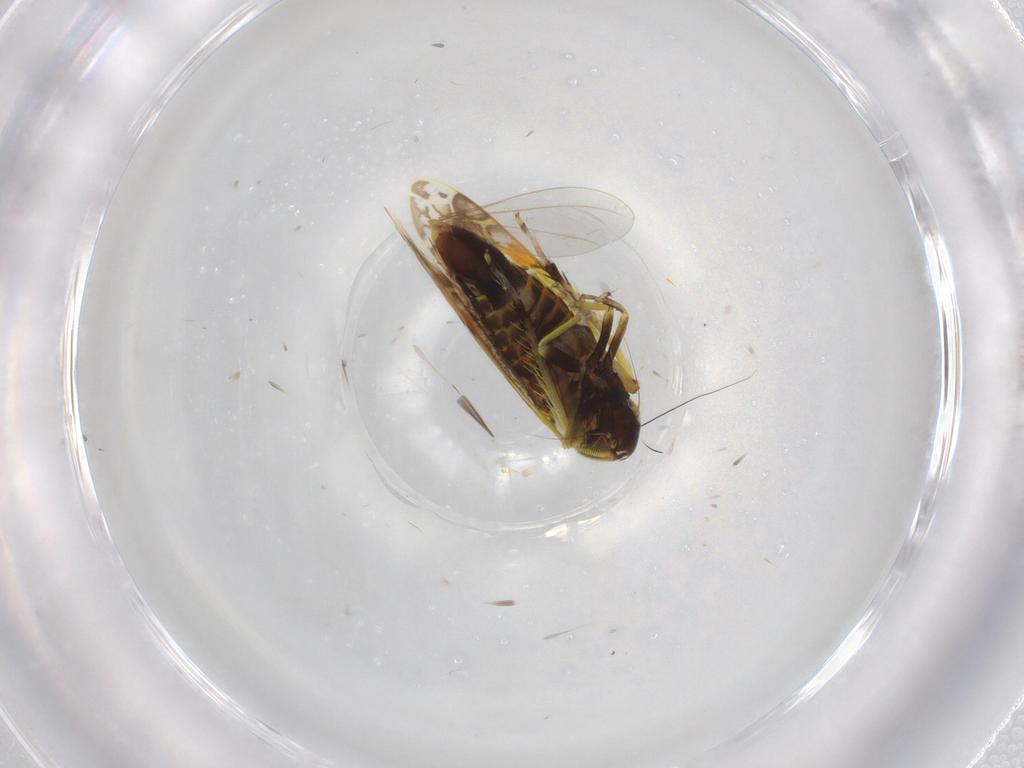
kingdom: Animalia
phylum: Arthropoda
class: Insecta
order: Hemiptera
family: Cicadellidae
